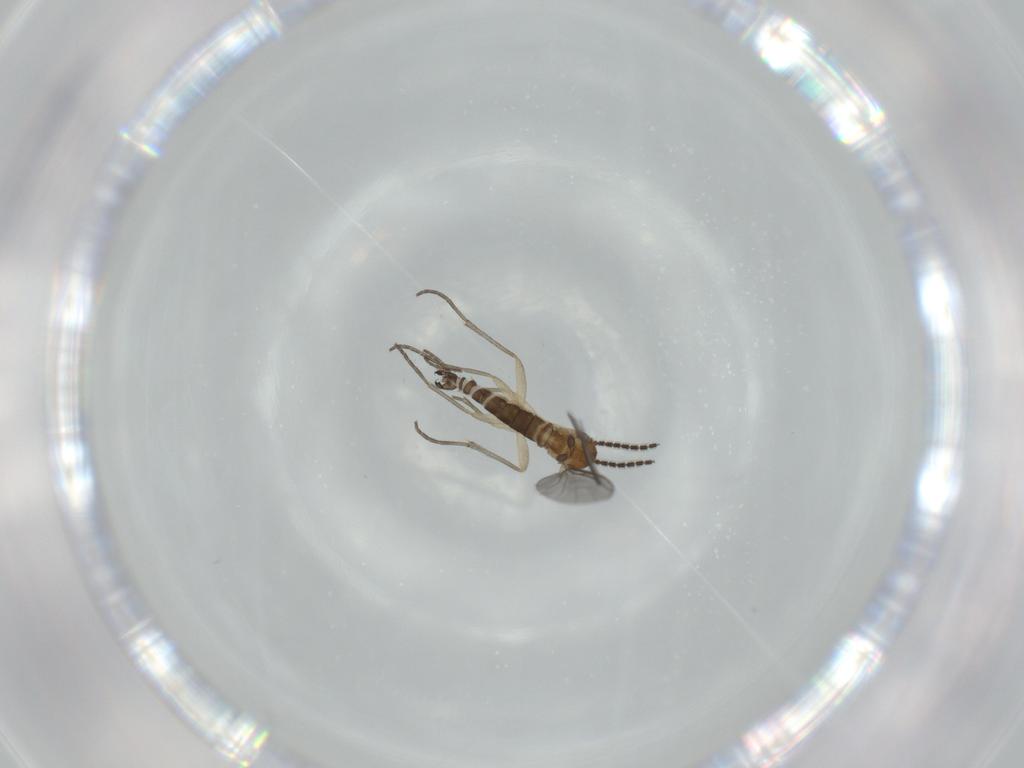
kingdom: Animalia
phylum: Arthropoda
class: Insecta
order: Diptera
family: Sciaridae
